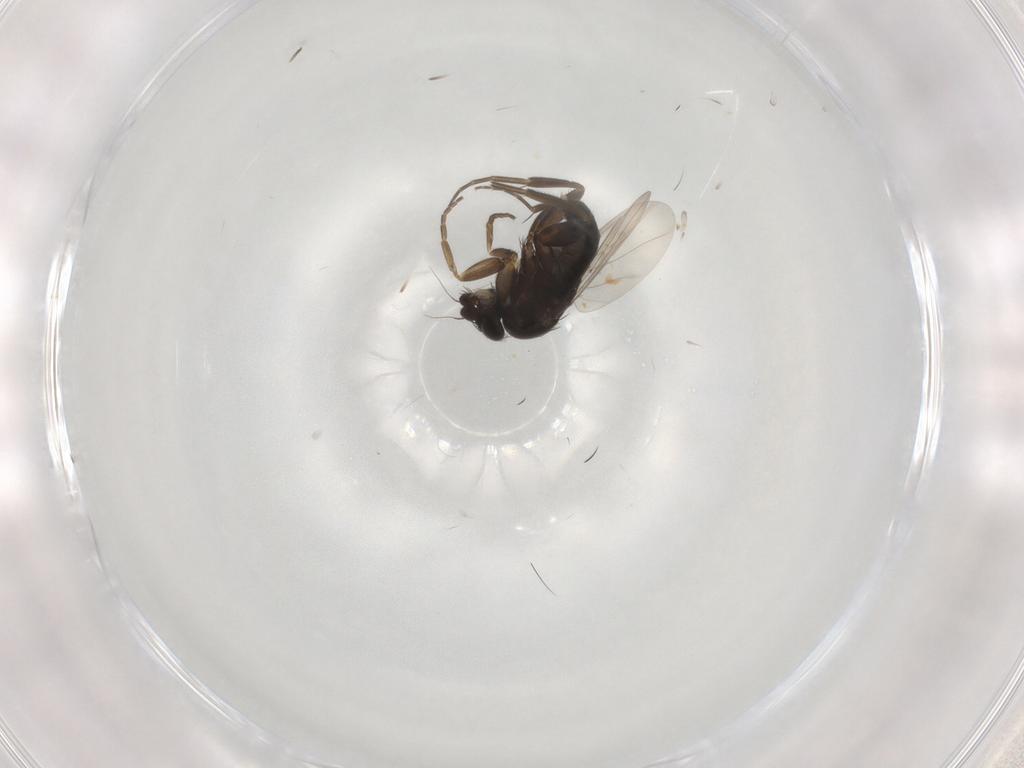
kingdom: Animalia
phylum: Arthropoda
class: Insecta
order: Diptera
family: Phoridae
